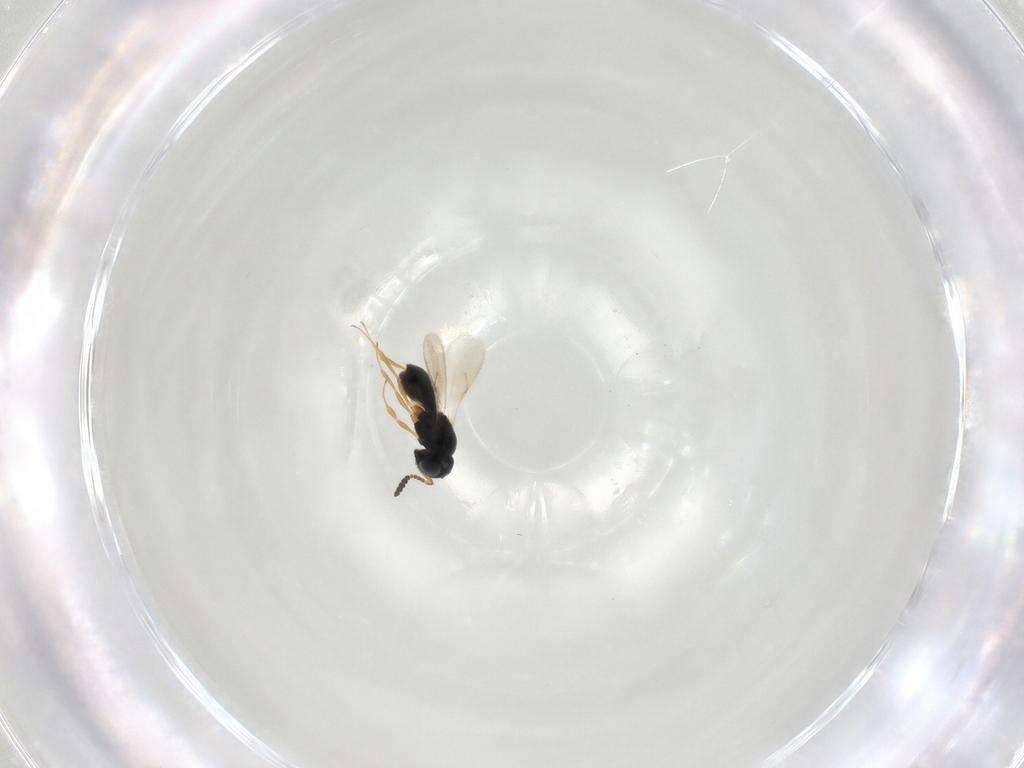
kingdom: Animalia
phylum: Arthropoda
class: Insecta
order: Hymenoptera
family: Scelionidae
